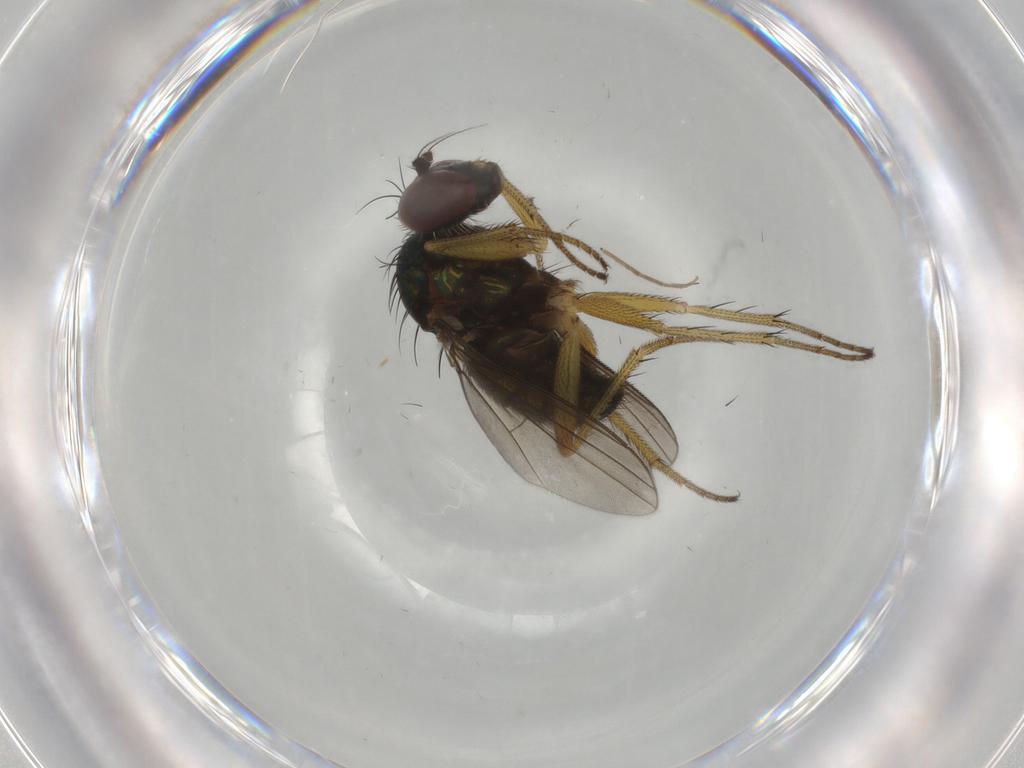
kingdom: Animalia
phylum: Arthropoda
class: Insecta
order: Diptera
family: Dolichopodidae
